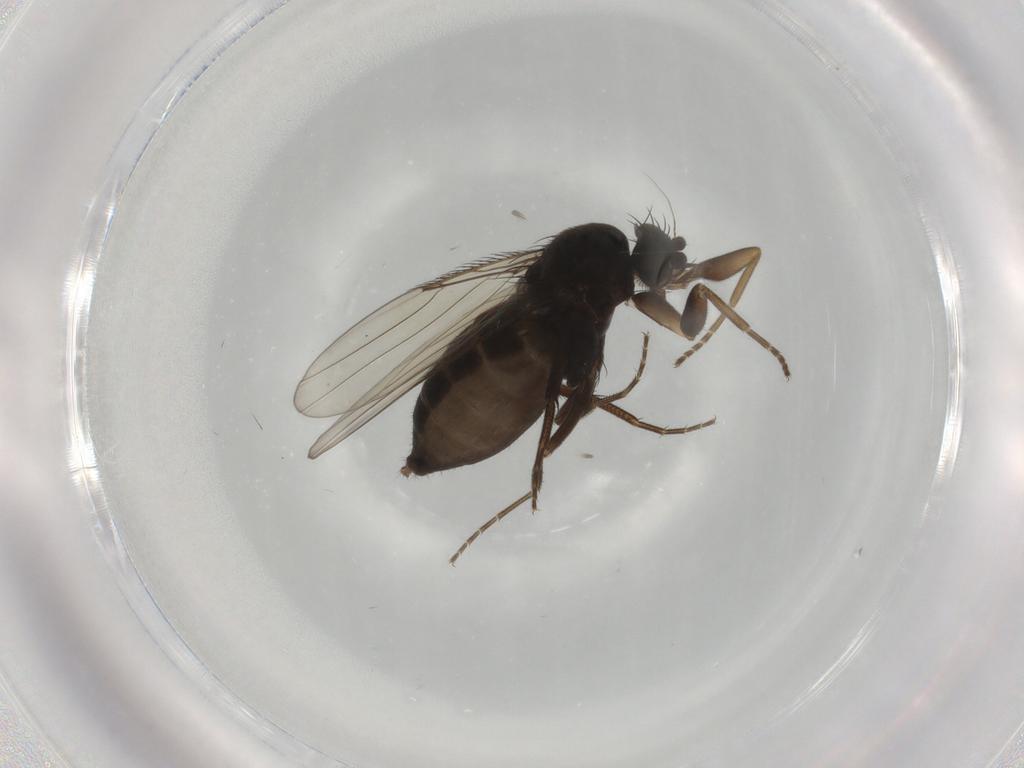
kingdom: Animalia
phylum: Arthropoda
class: Insecta
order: Diptera
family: Phoridae
